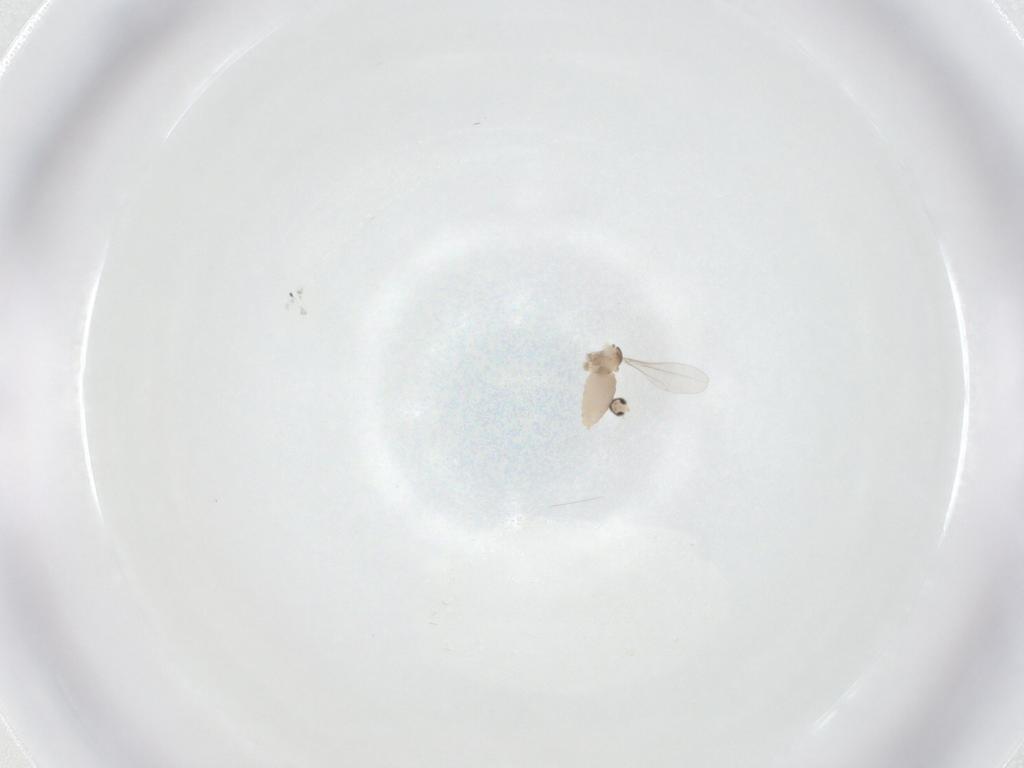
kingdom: Animalia
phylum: Arthropoda
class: Insecta
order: Diptera
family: Cecidomyiidae
